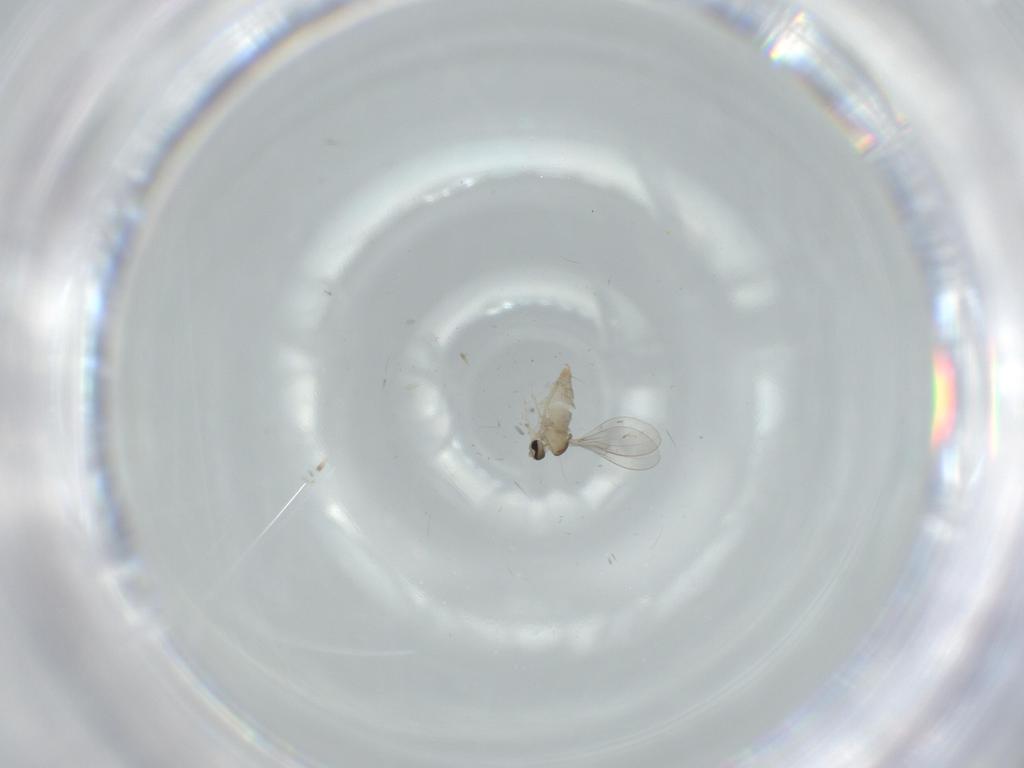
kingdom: Animalia
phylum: Arthropoda
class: Insecta
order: Diptera
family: Cecidomyiidae
